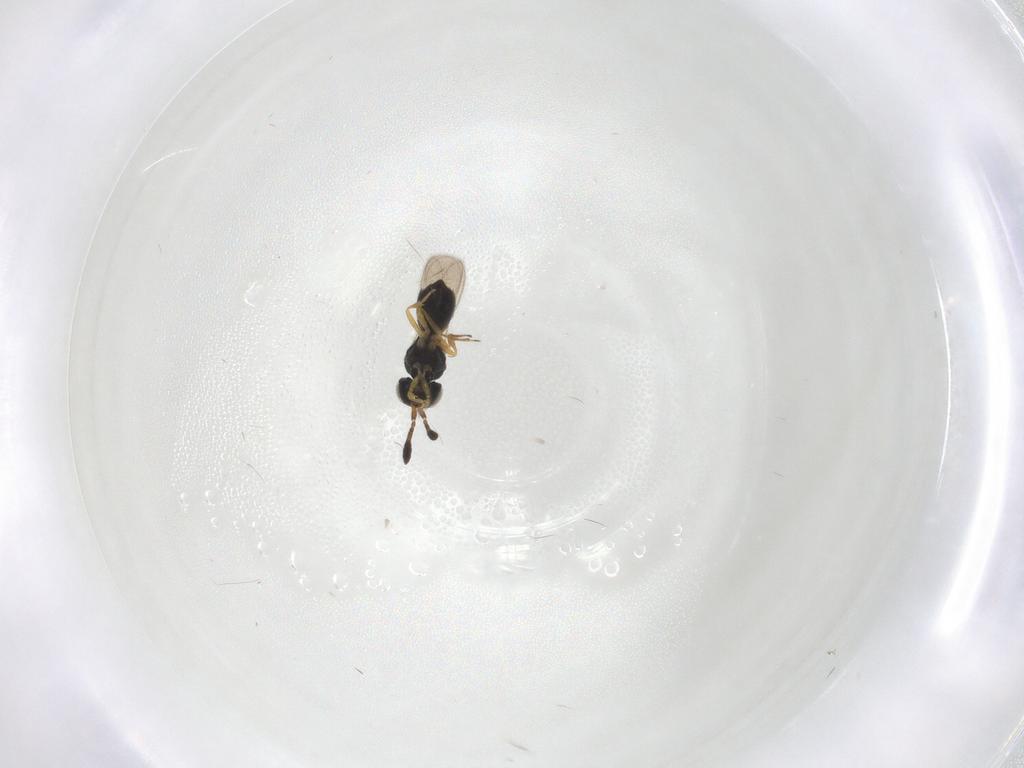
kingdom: Animalia
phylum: Arthropoda
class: Insecta
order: Hymenoptera
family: Scelionidae
